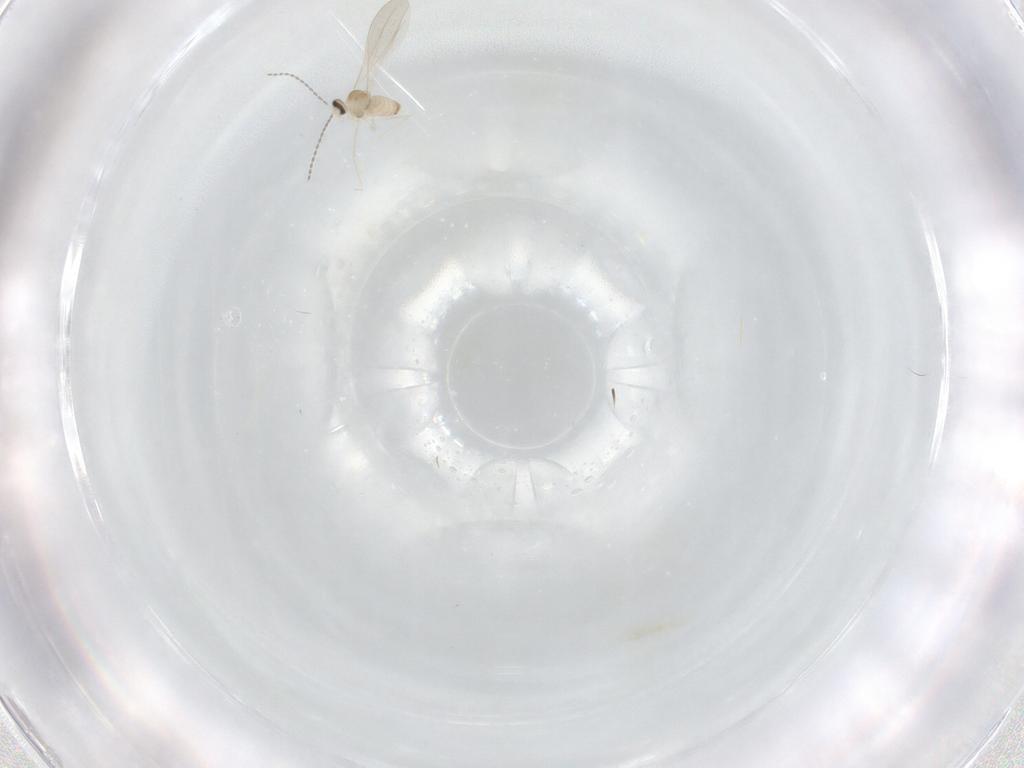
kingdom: Animalia
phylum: Arthropoda
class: Insecta
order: Diptera
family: Cecidomyiidae
